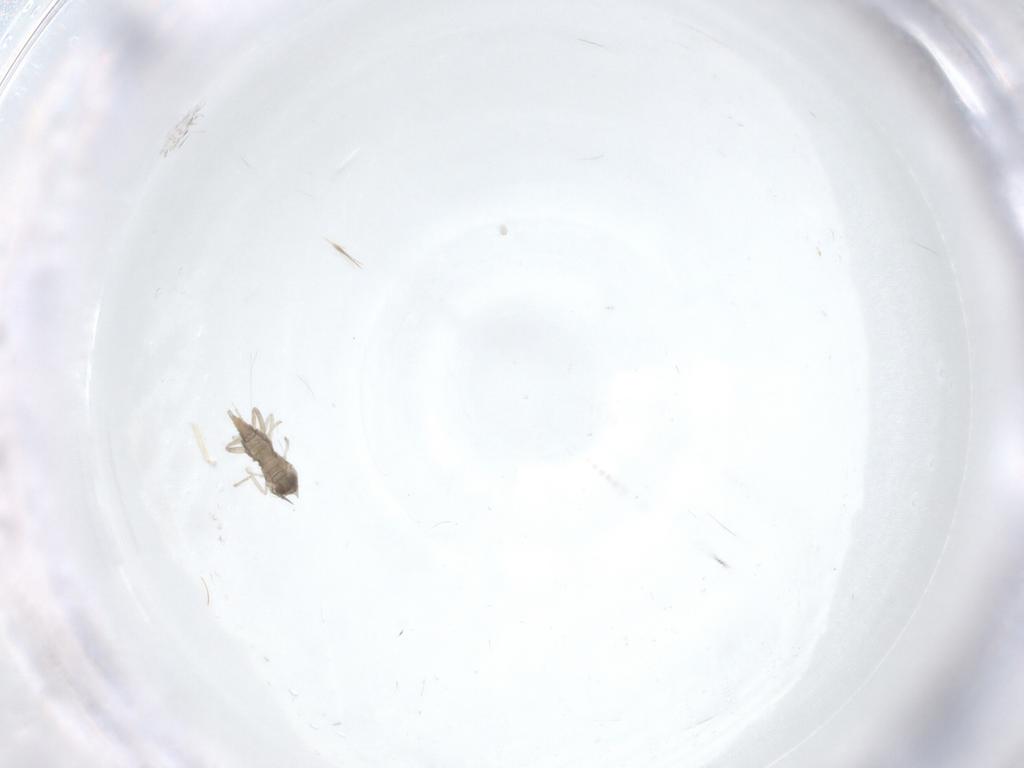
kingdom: Animalia
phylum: Arthropoda
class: Insecta
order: Diptera
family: Cecidomyiidae
